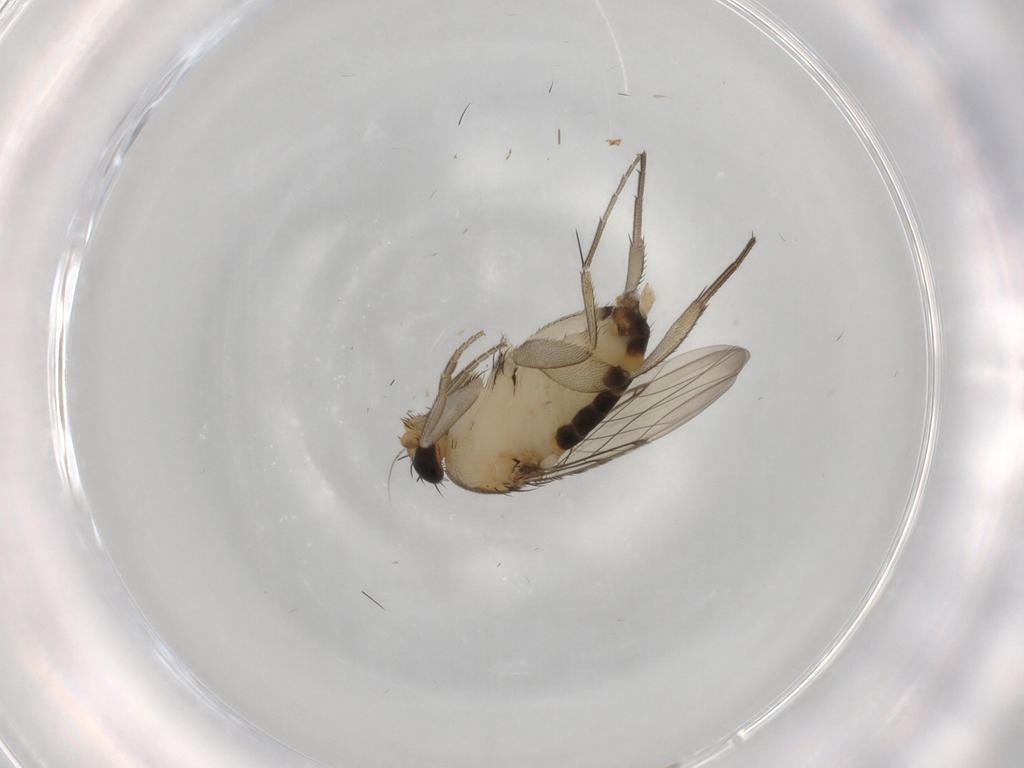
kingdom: Animalia
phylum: Arthropoda
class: Insecta
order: Diptera
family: Phoridae
